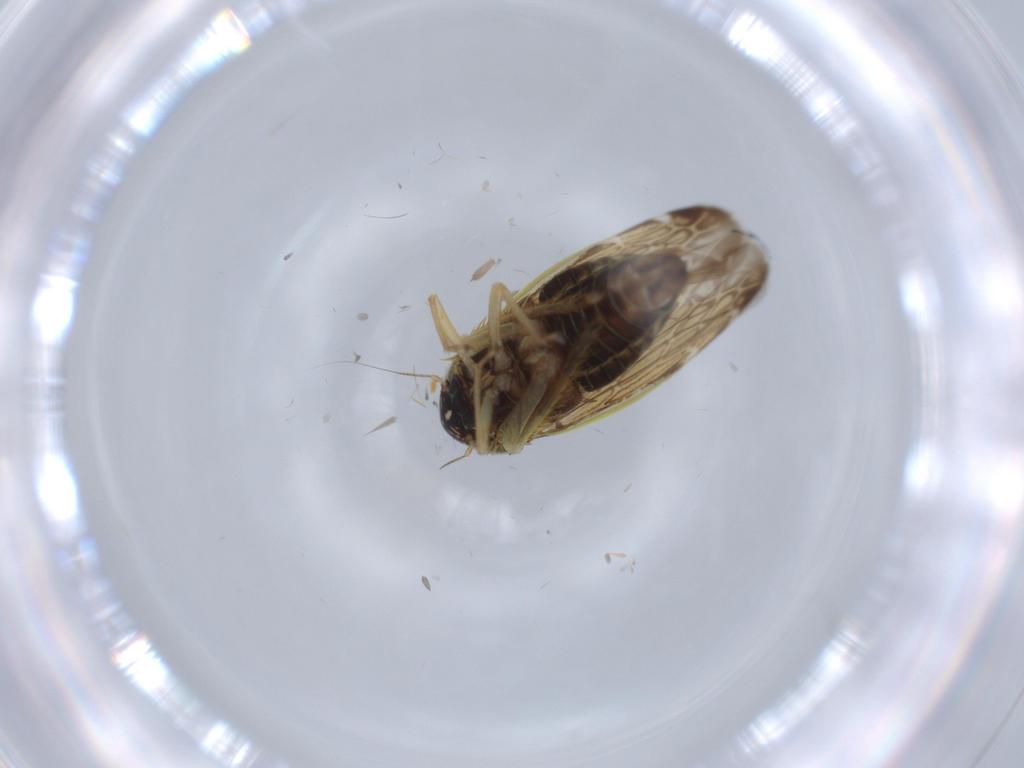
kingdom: Animalia
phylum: Arthropoda
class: Insecta
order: Hemiptera
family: Cicadellidae
